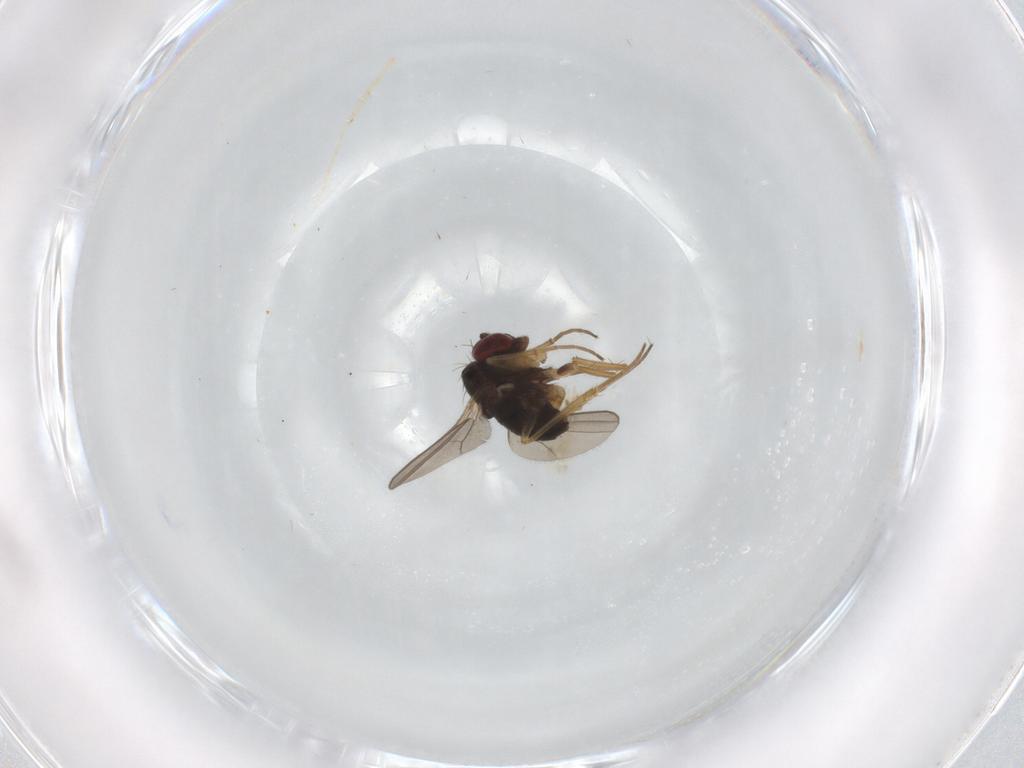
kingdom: Animalia
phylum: Arthropoda
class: Insecta
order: Diptera
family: Dolichopodidae
